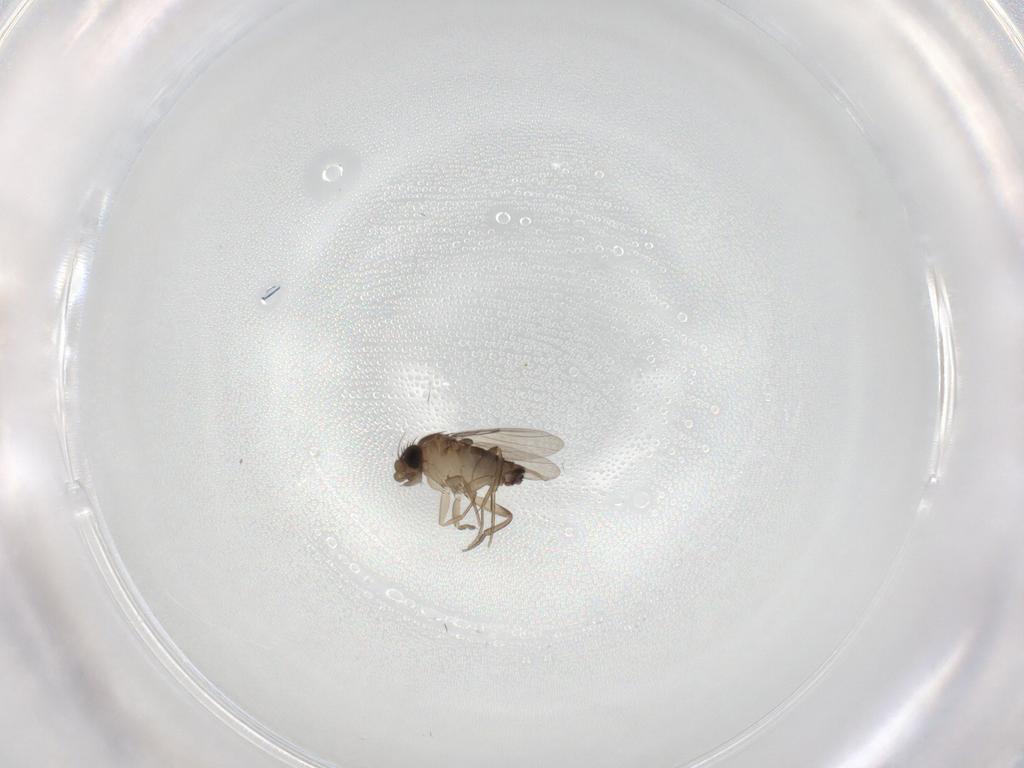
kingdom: Animalia
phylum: Arthropoda
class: Insecta
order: Diptera
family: Phoridae
